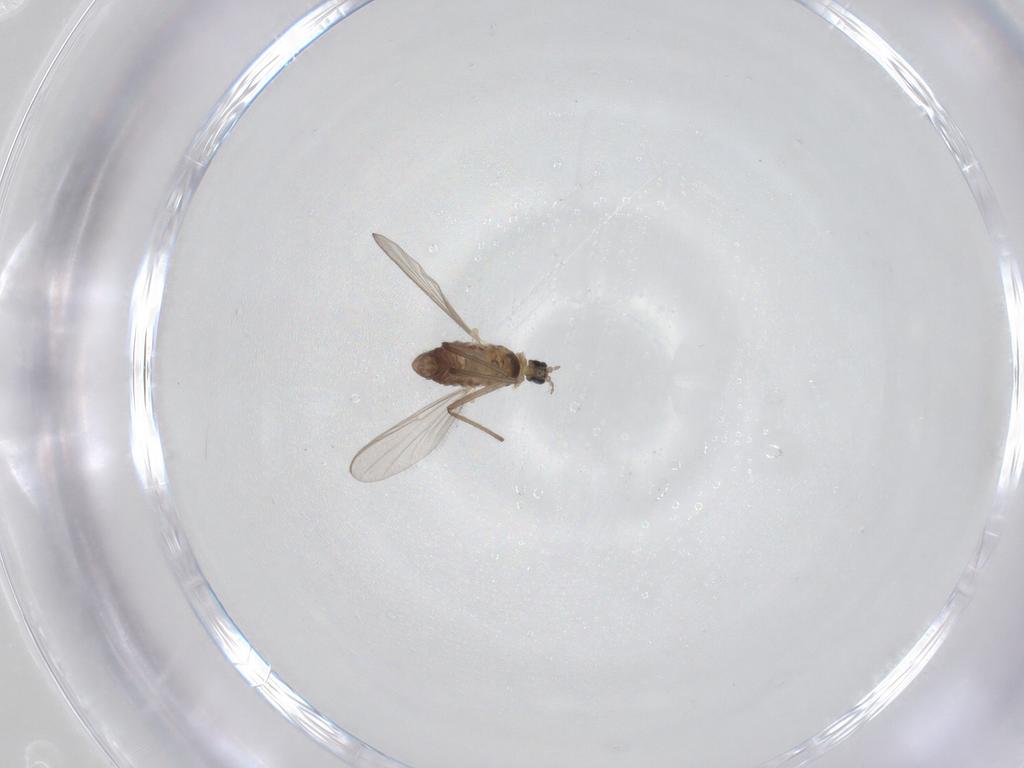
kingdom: Animalia
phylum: Arthropoda
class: Insecta
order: Diptera
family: Chironomidae
